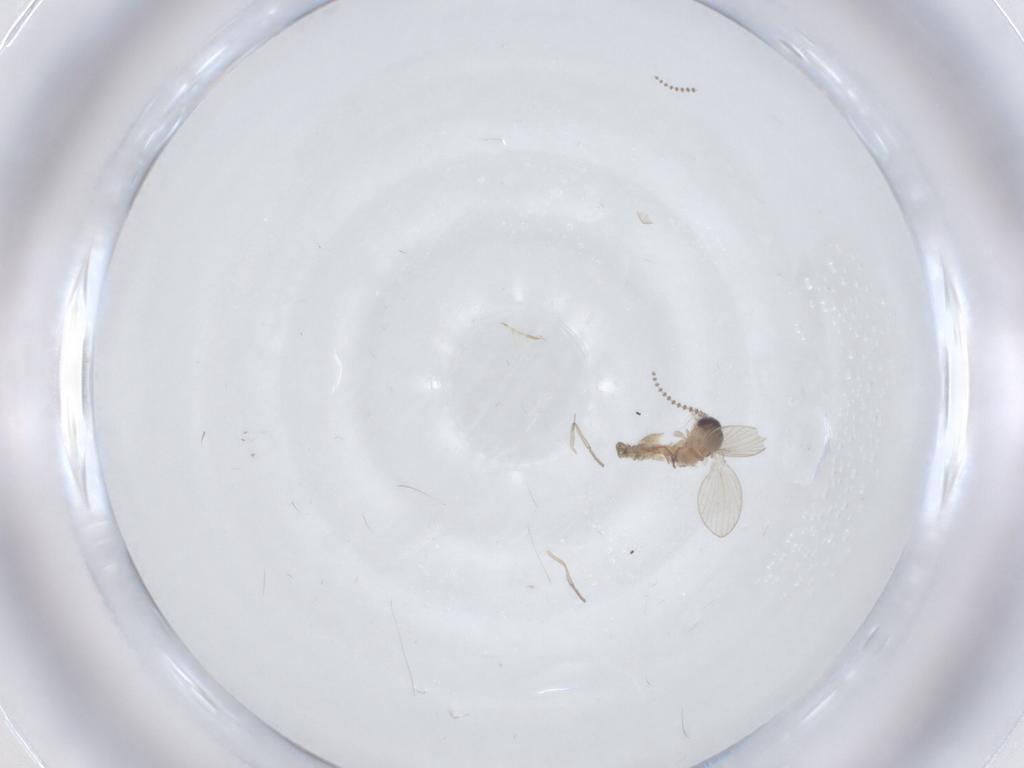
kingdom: Animalia
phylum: Arthropoda
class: Insecta
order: Diptera
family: Psychodidae
